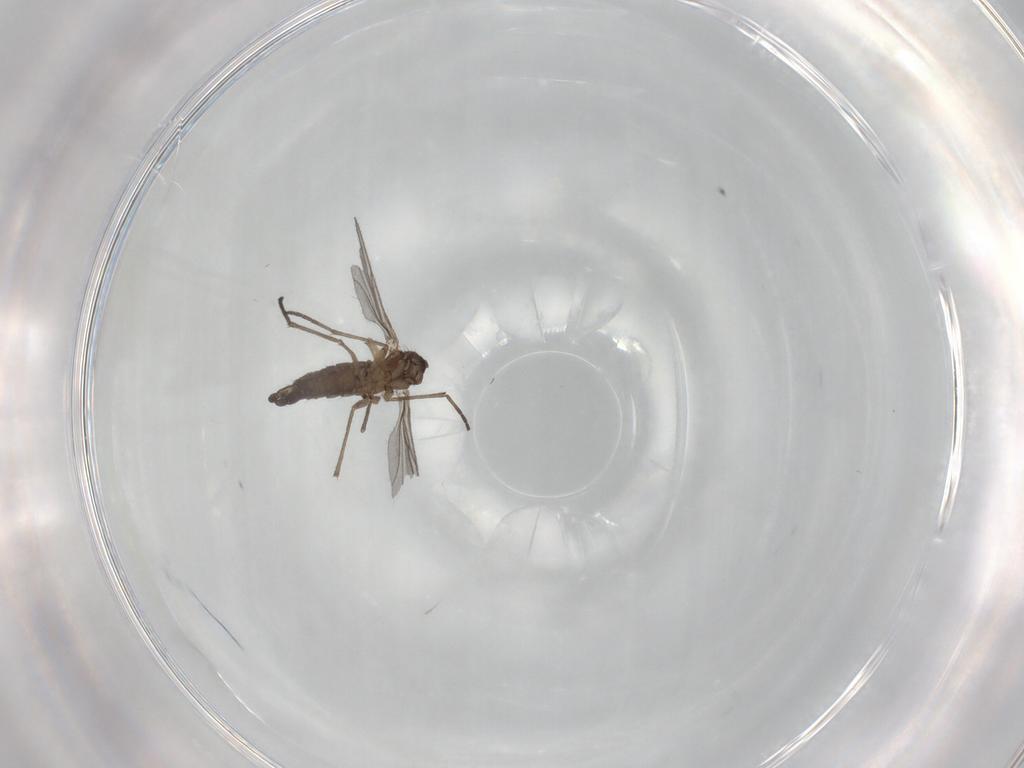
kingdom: Animalia
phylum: Arthropoda
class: Insecta
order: Diptera
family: Sciaridae
